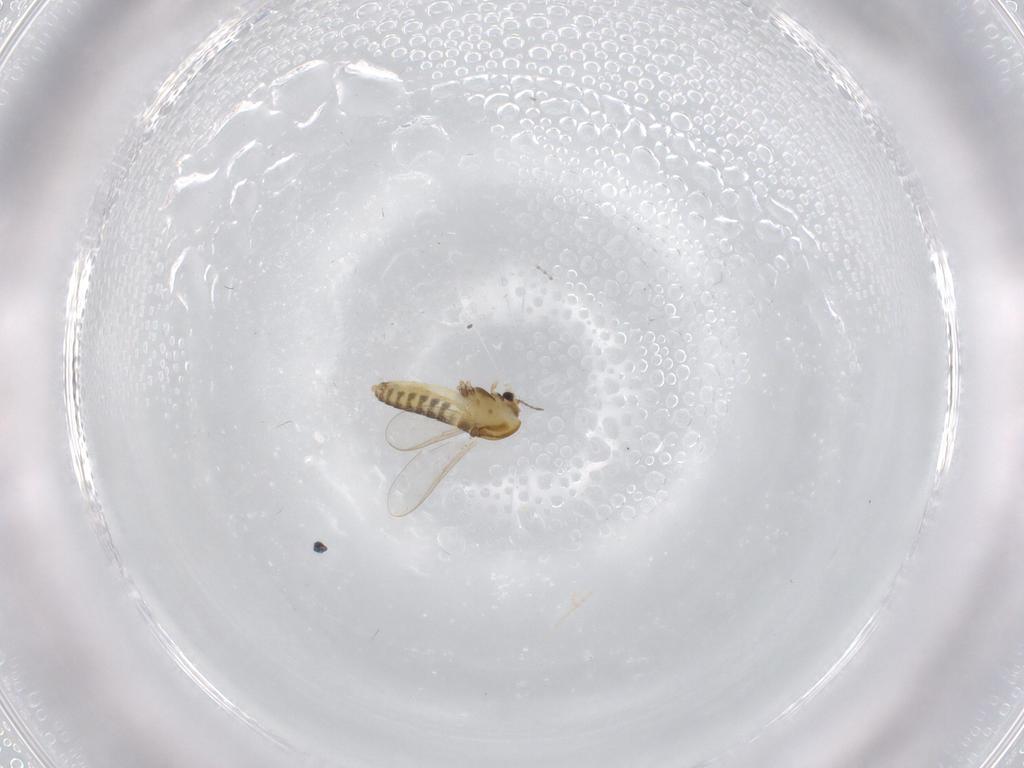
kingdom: Animalia
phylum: Arthropoda
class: Insecta
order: Diptera
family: Chironomidae
